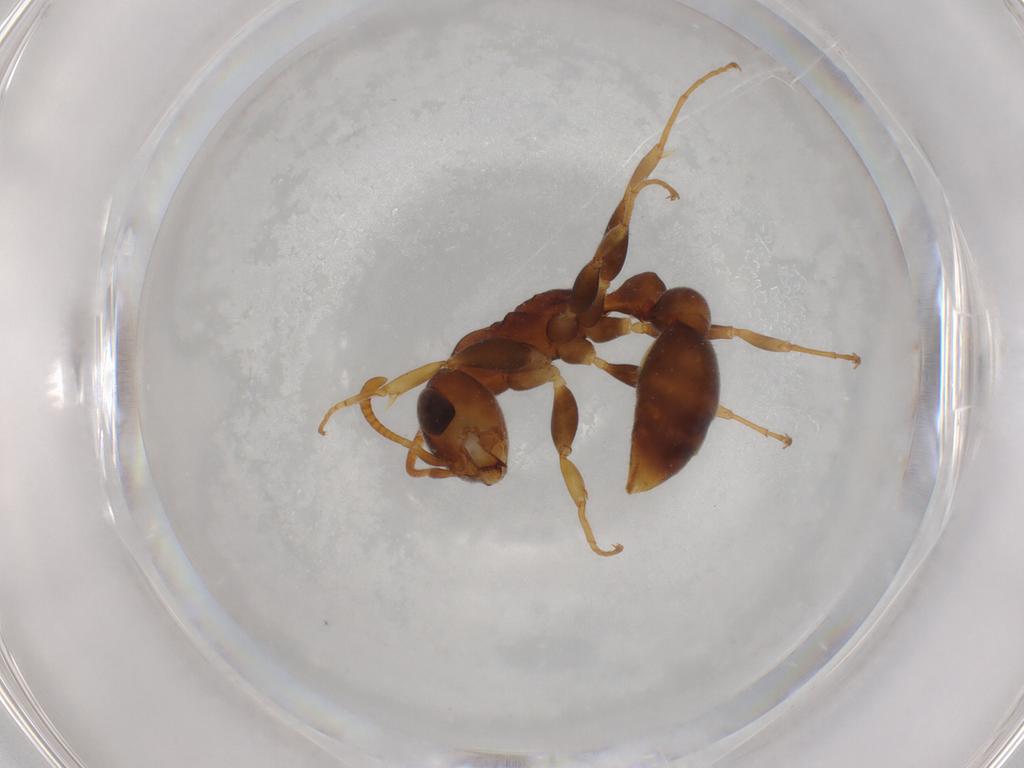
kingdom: Animalia
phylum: Arthropoda
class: Insecta
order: Hymenoptera
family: Formicidae
